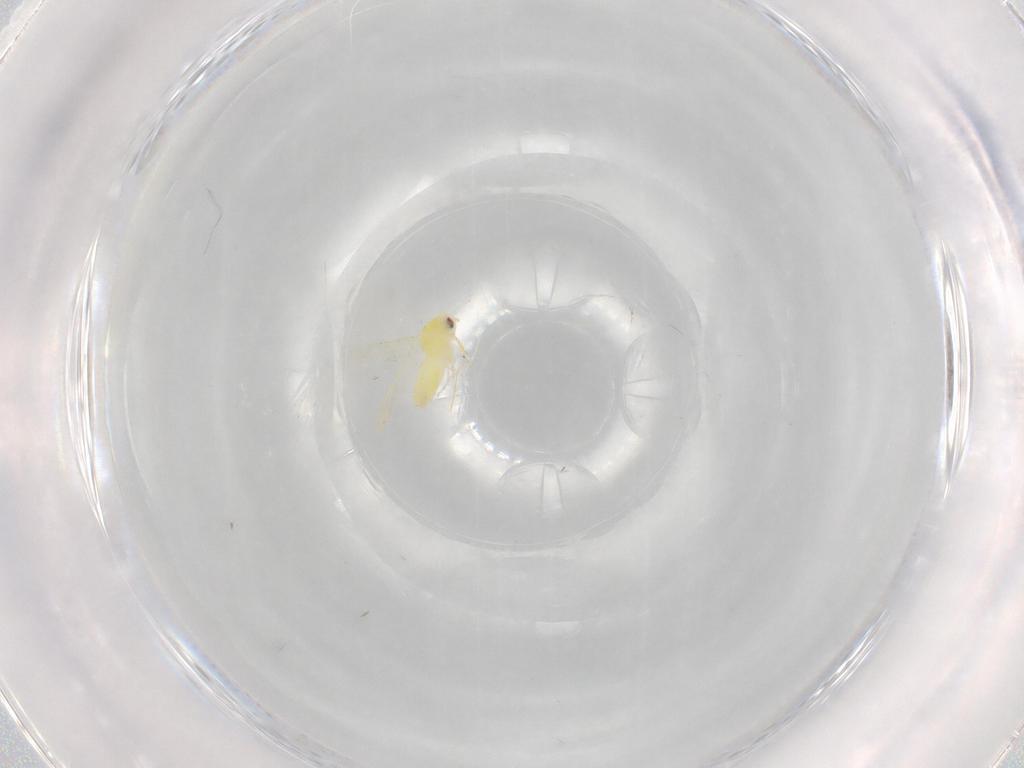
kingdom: Animalia
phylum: Arthropoda
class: Insecta
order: Hemiptera
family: Aleyrodidae
